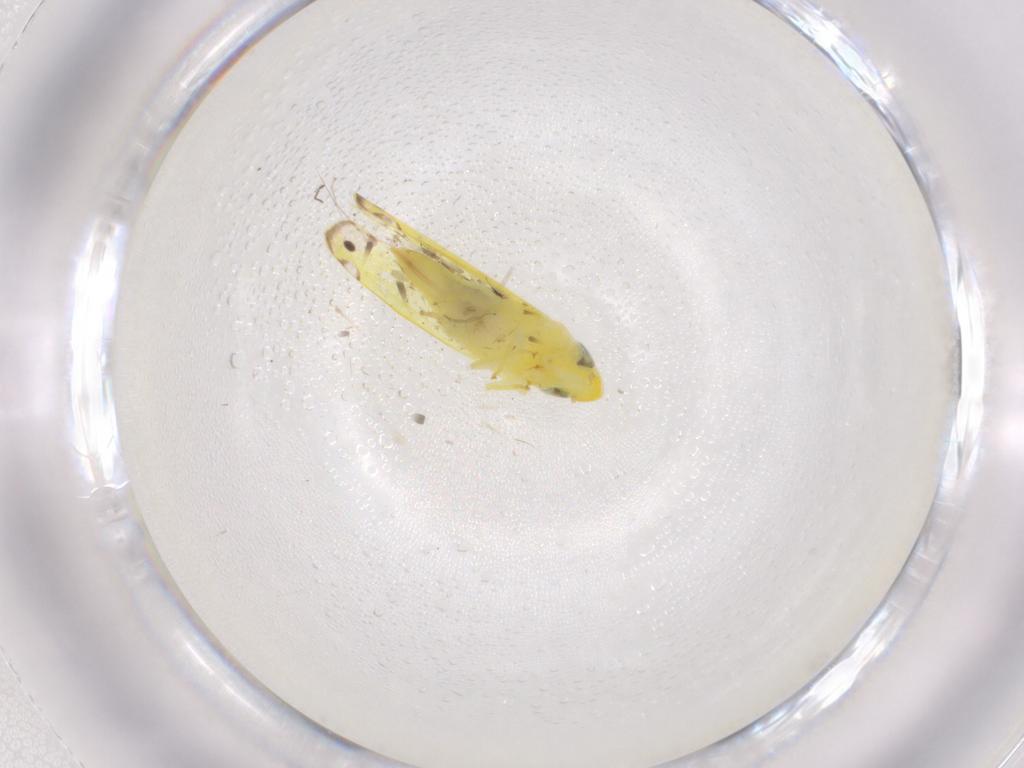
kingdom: Animalia
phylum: Arthropoda
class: Insecta
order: Hemiptera
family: Cicadellidae
